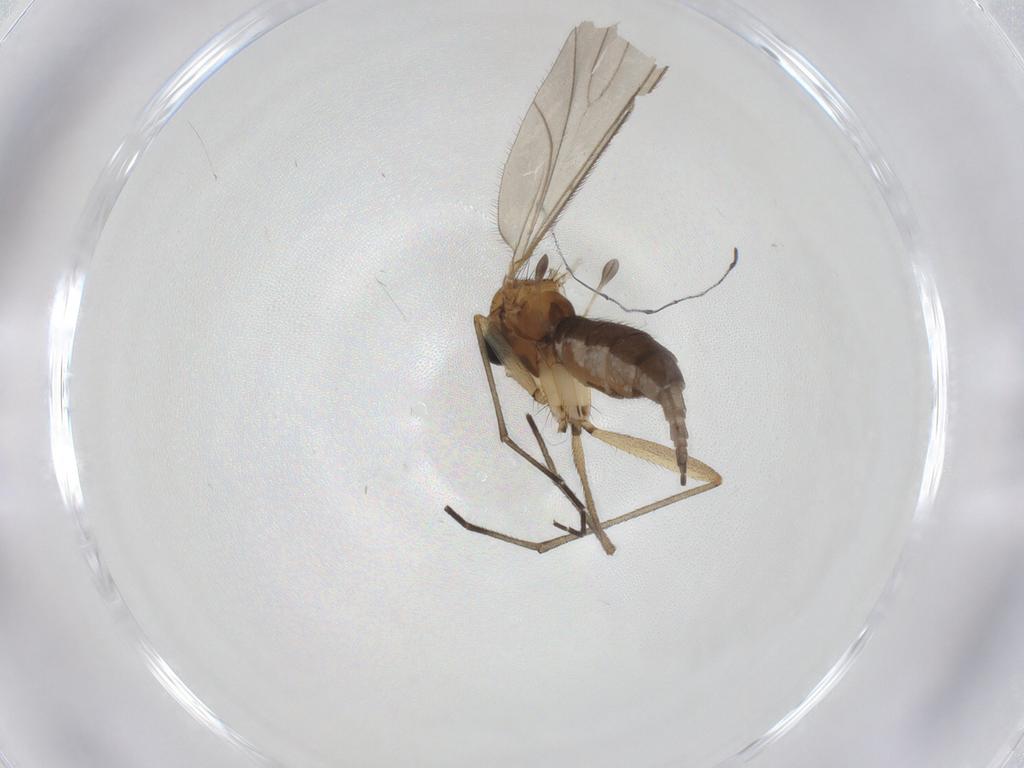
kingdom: Animalia
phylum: Arthropoda
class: Insecta
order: Diptera
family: Sciaridae
